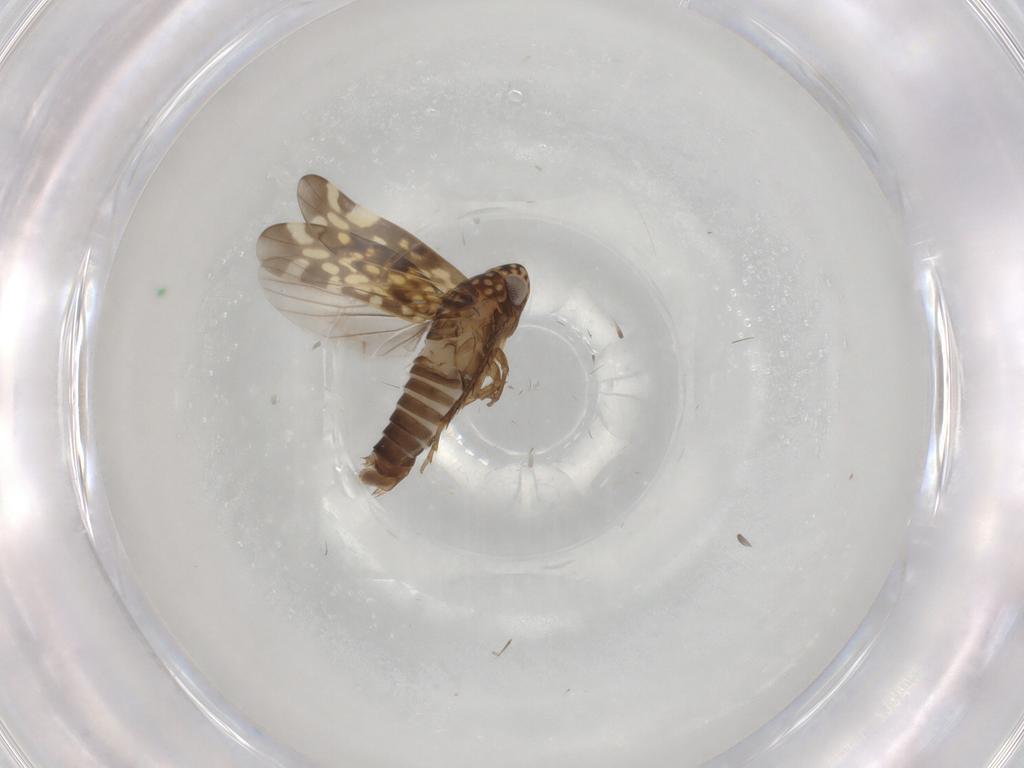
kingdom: Animalia
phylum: Arthropoda
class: Insecta
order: Hemiptera
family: Cicadellidae
